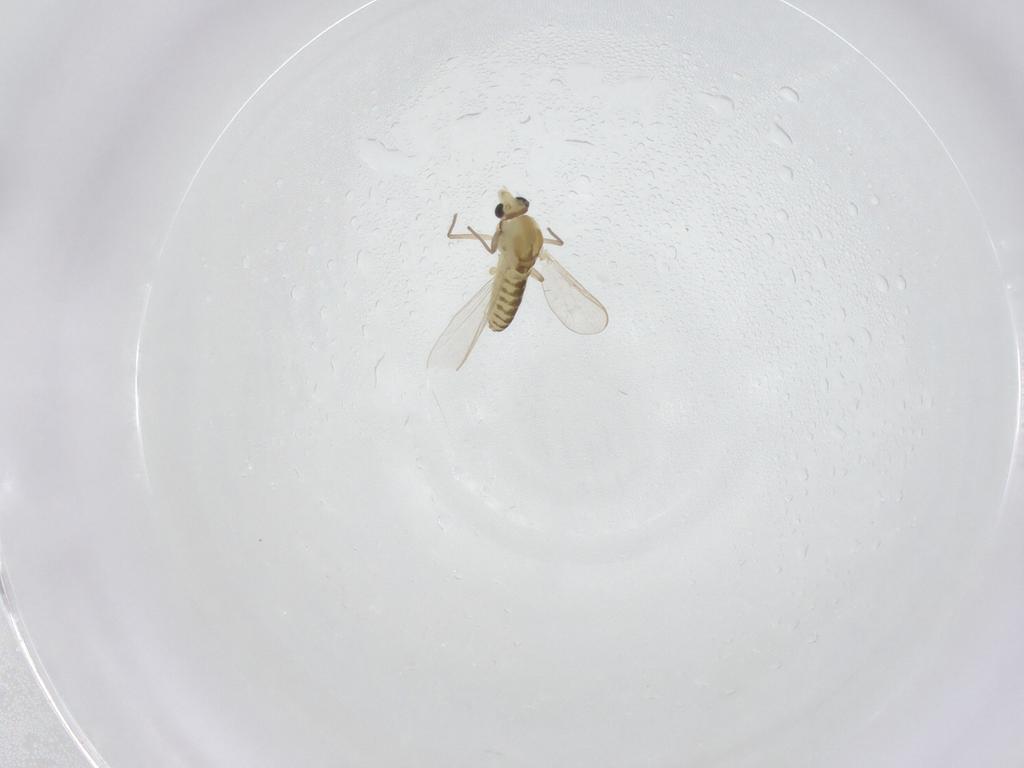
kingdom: Animalia
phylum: Arthropoda
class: Insecta
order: Diptera
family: Chironomidae
